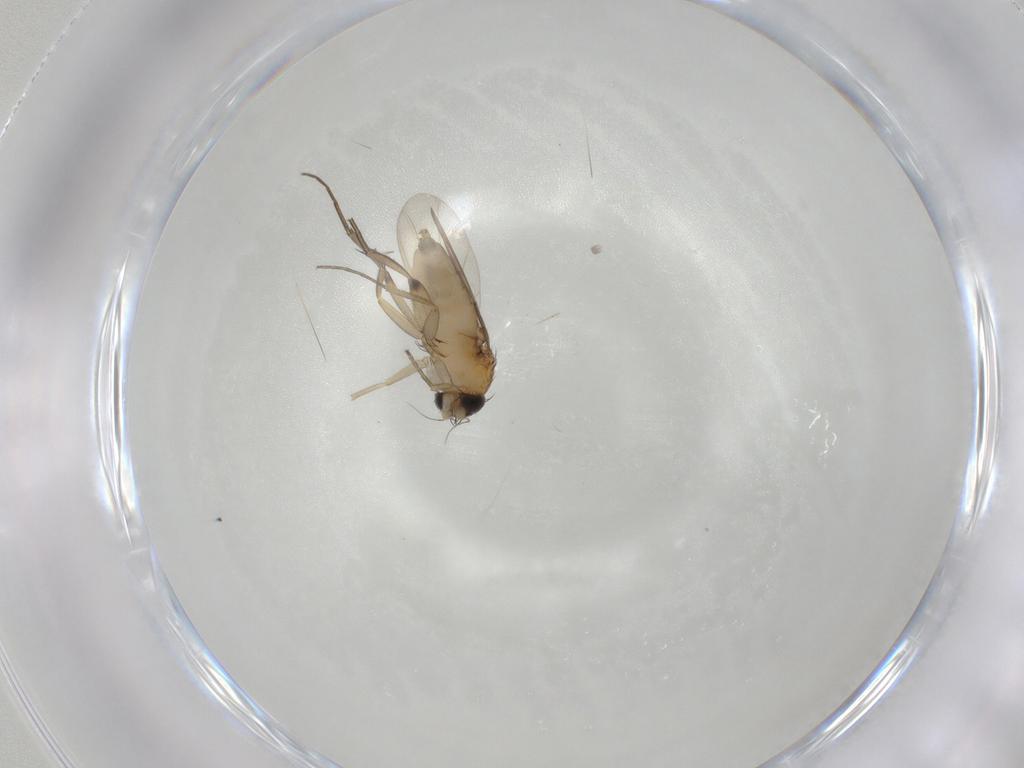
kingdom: Animalia
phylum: Arthropoda
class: Insecta
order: Diptera
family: Phoridae
